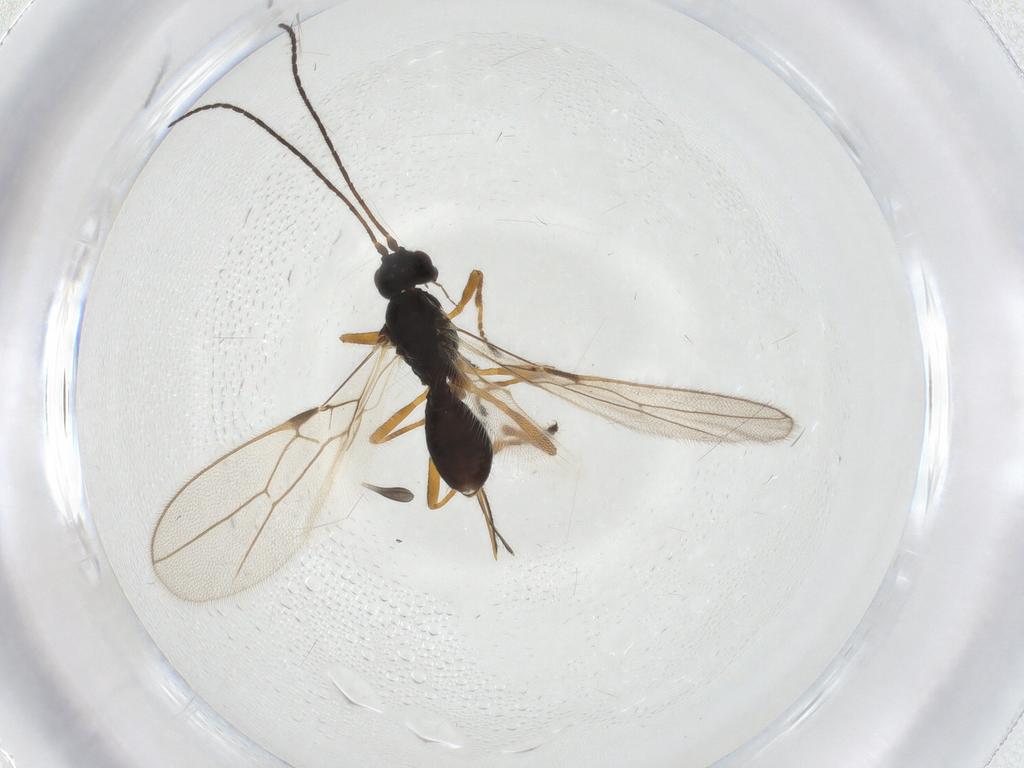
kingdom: Animalia
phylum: Arthropoda
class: Insecta
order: Hymenoptera
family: Braconidae
